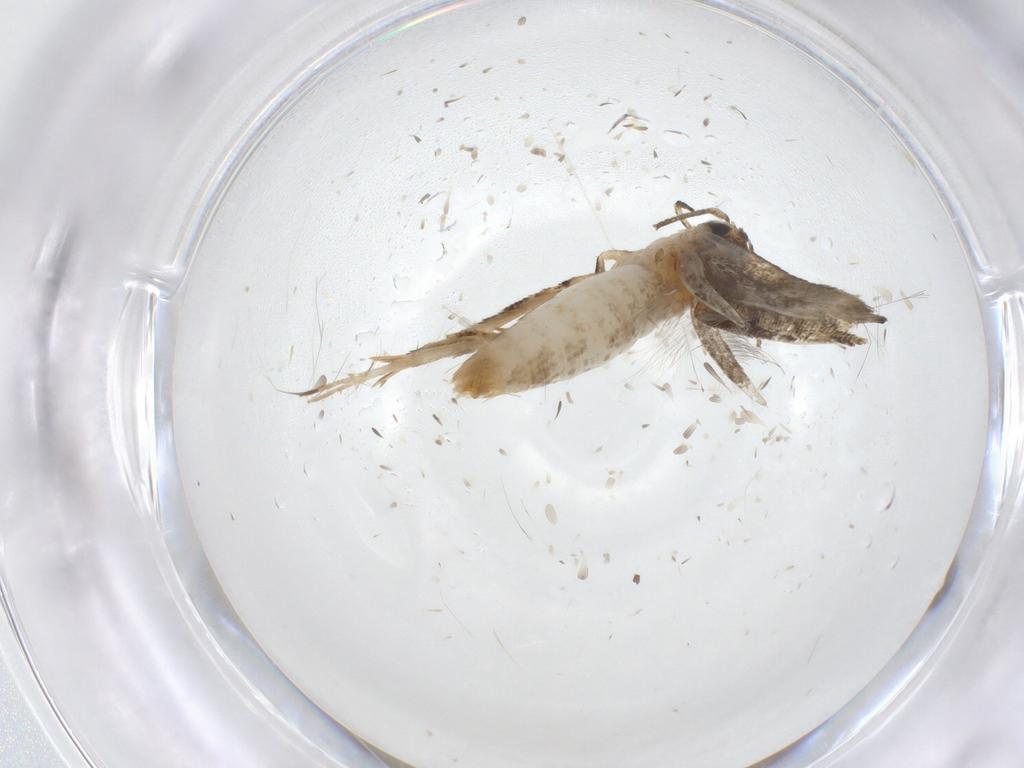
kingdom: Animalia
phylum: Arthropoda
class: Insecta
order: Lepidoptera
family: Gelechiidae
